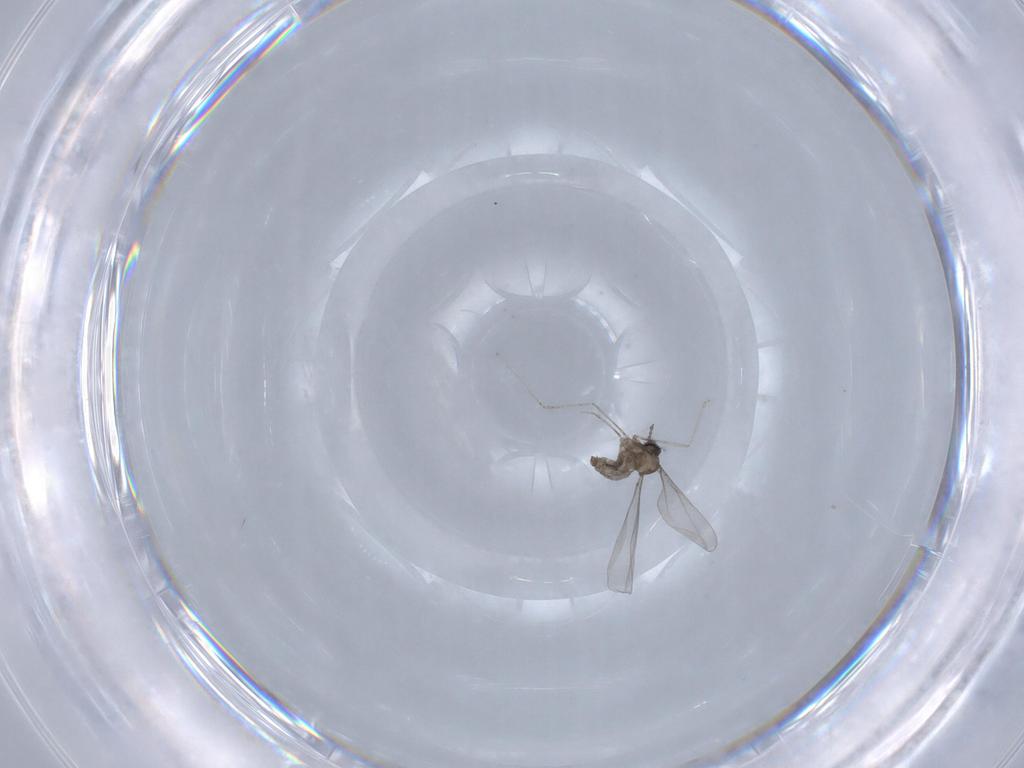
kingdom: Animalia
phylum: Arthropoda
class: Insecta
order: Diptera
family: Cecidomyiidae
